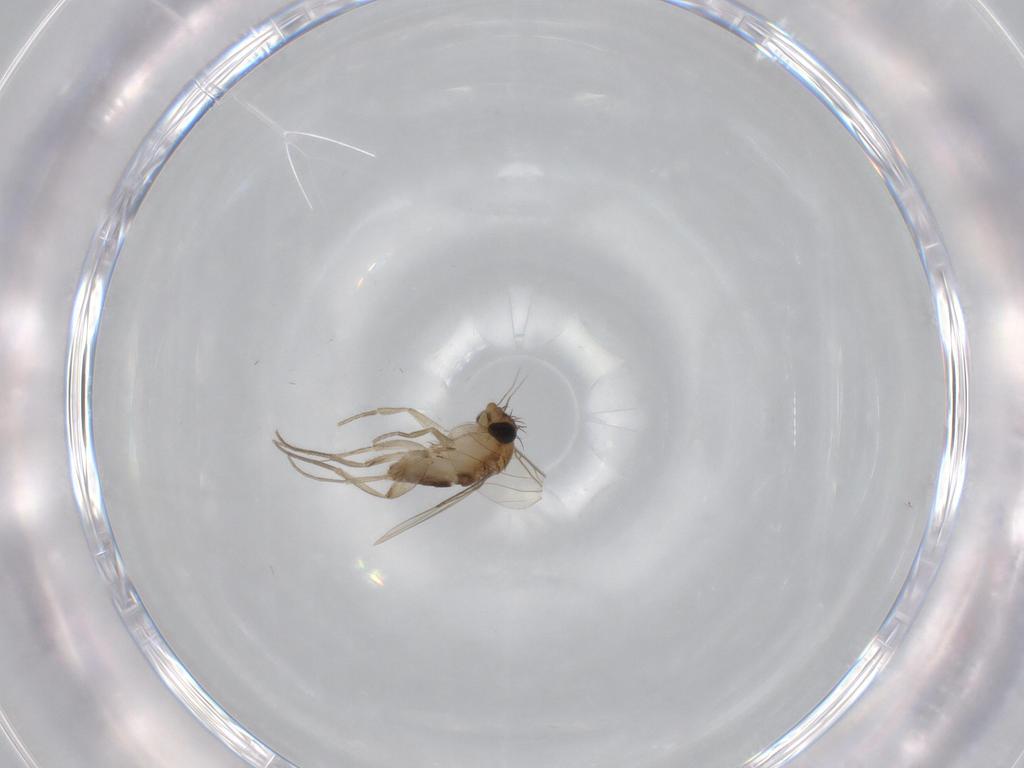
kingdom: Animalia
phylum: Arthropoda
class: Insecta
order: Diptera
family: Phoridae
